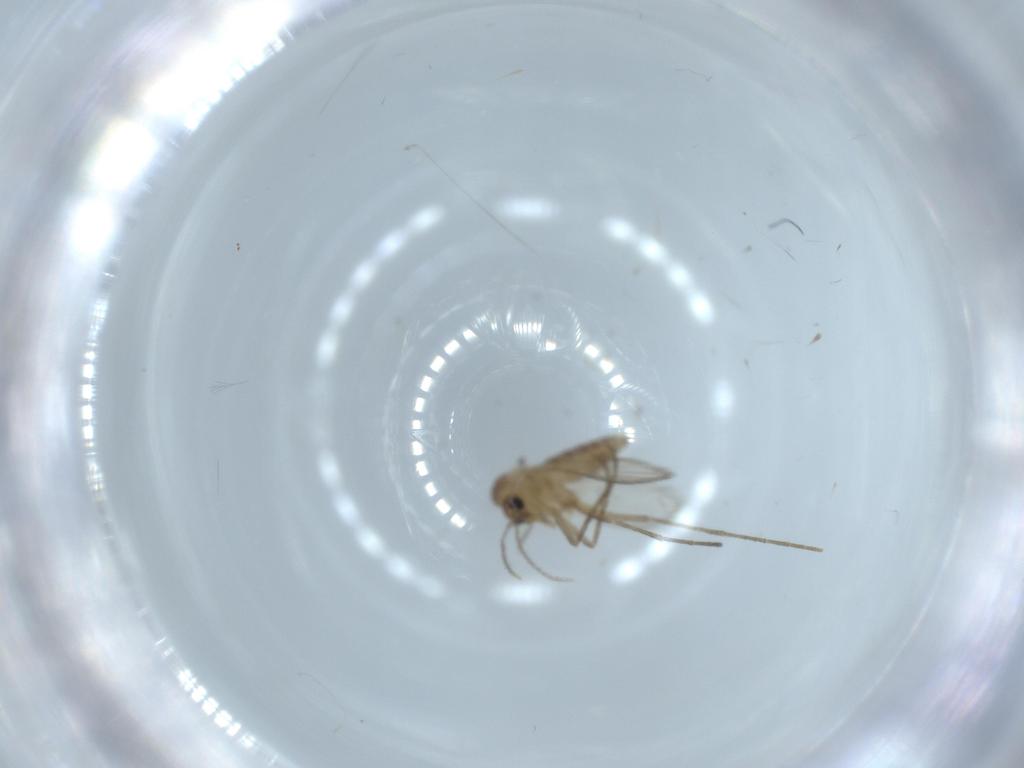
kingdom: Animalia
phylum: Arthropoda
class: Insecta
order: Diptera
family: Psychodidae
